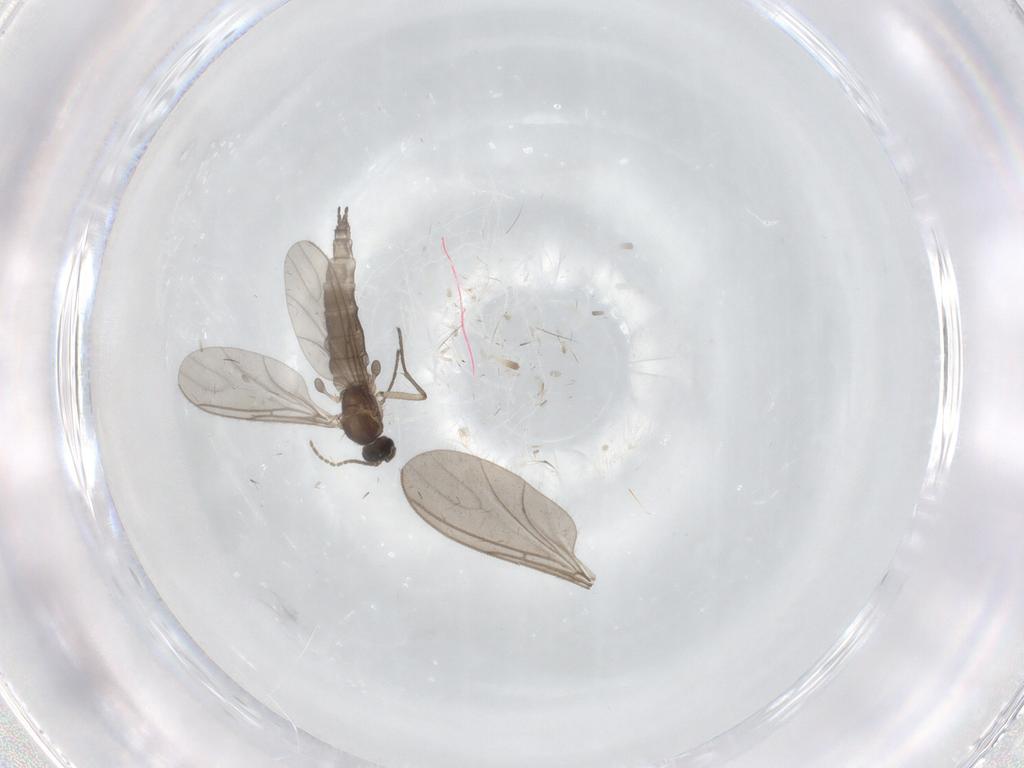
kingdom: Animalia
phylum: Arthropoda
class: Insecta
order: Diptera
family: Sciaridae
